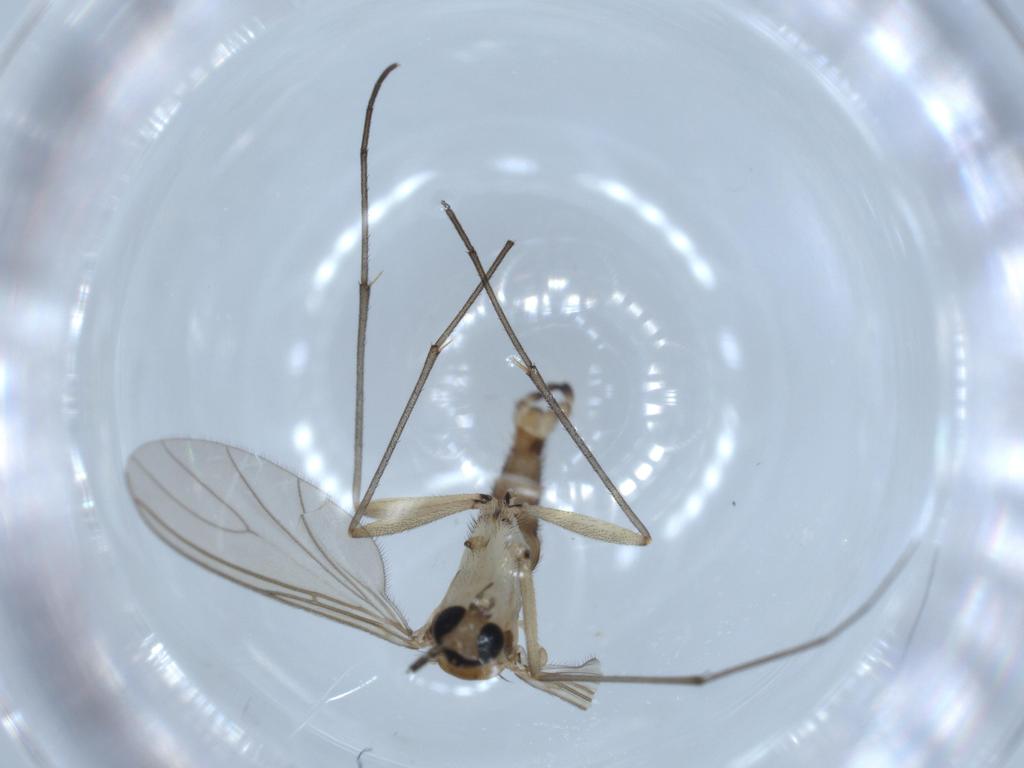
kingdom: Animalia
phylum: Arthropoda
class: Insecta
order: Diptera
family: Sciaridae
